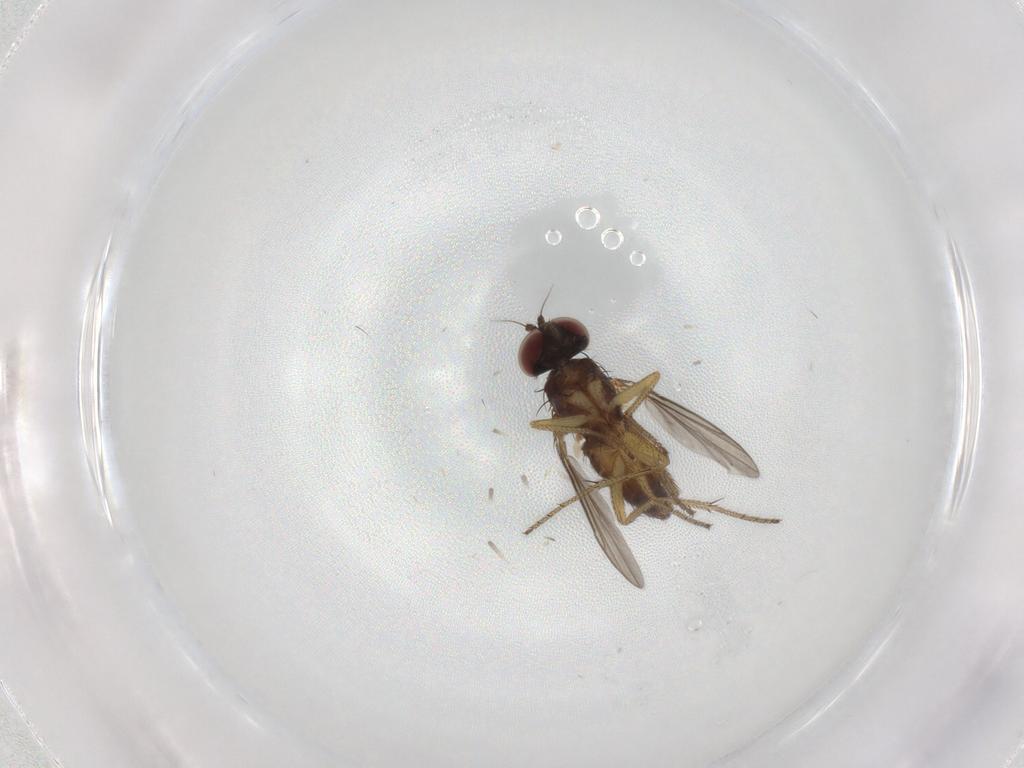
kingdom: Animalia
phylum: Arthropoda
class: Insecta
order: Diptera
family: Dolichopodidae
